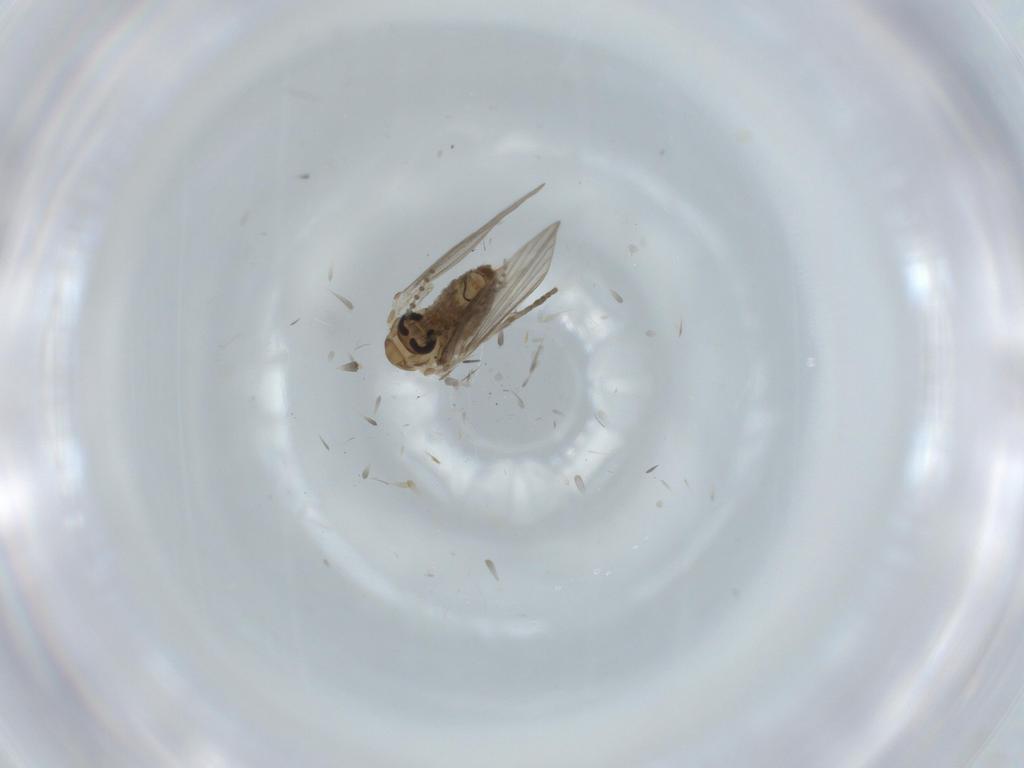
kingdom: Animalia
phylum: Arthropoda
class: Insecta
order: Diptera
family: Psychodidae
